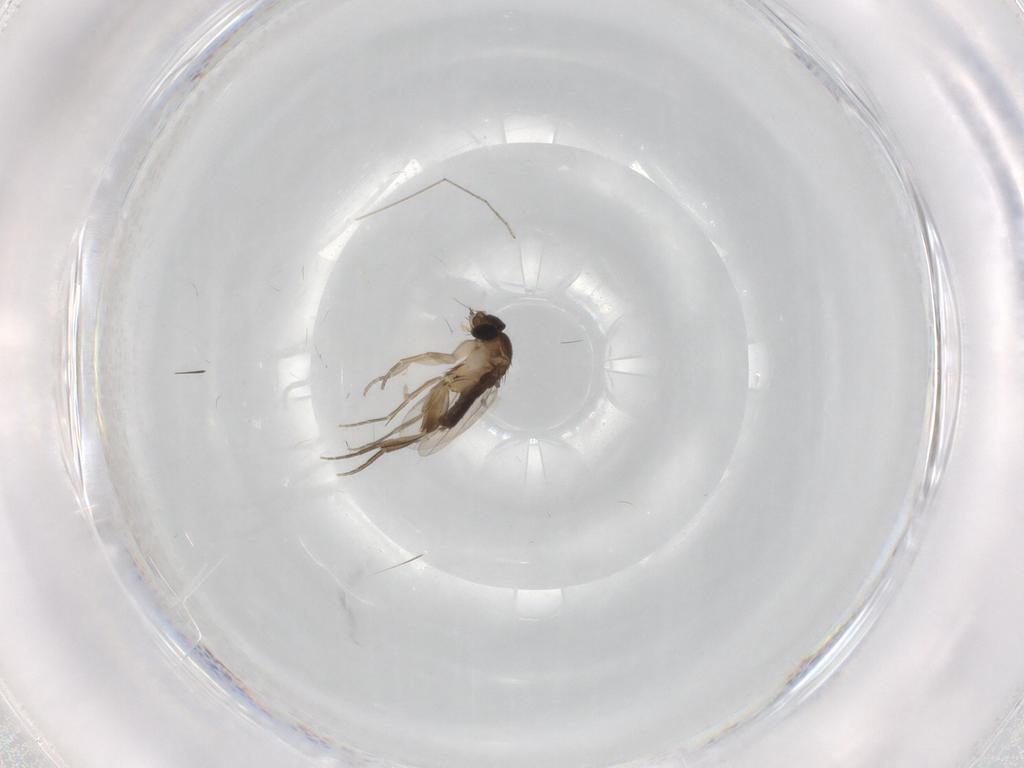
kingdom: Animalia
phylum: Arthropoda
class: Insecta
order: Diptera
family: Phoridae
